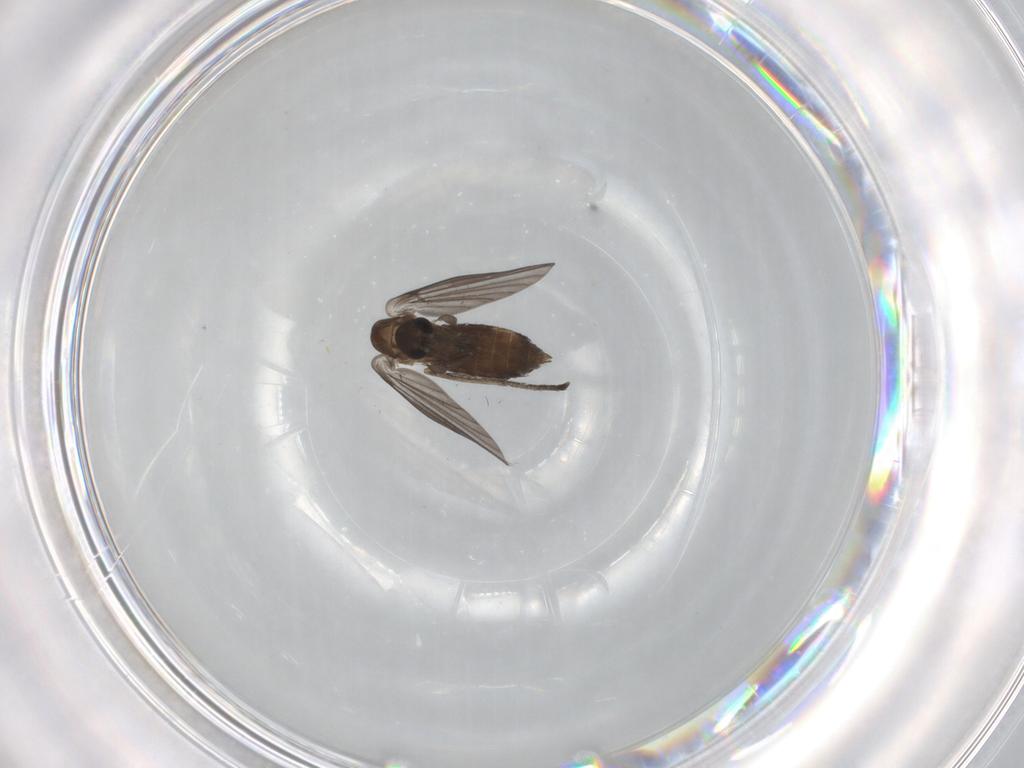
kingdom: Animalia
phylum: Arthropoda
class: Insecta
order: Diptera
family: Psychodidae
